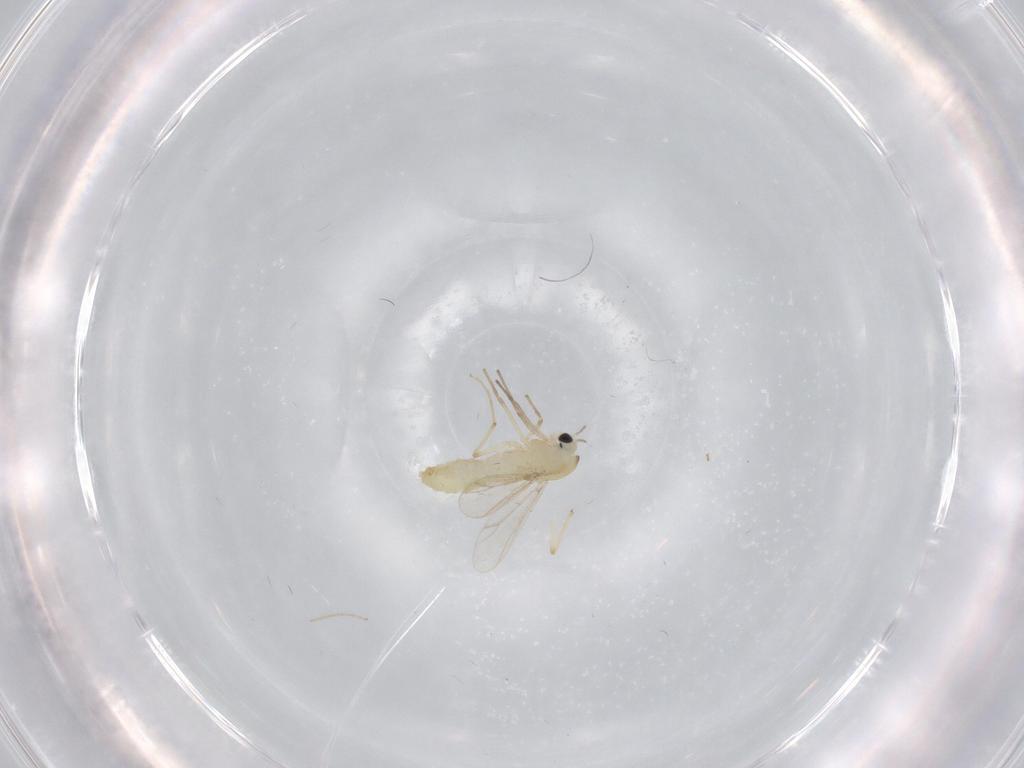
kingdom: Animalia
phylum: Arthropoda
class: Insecta
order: Diptera
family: Chironomidae
